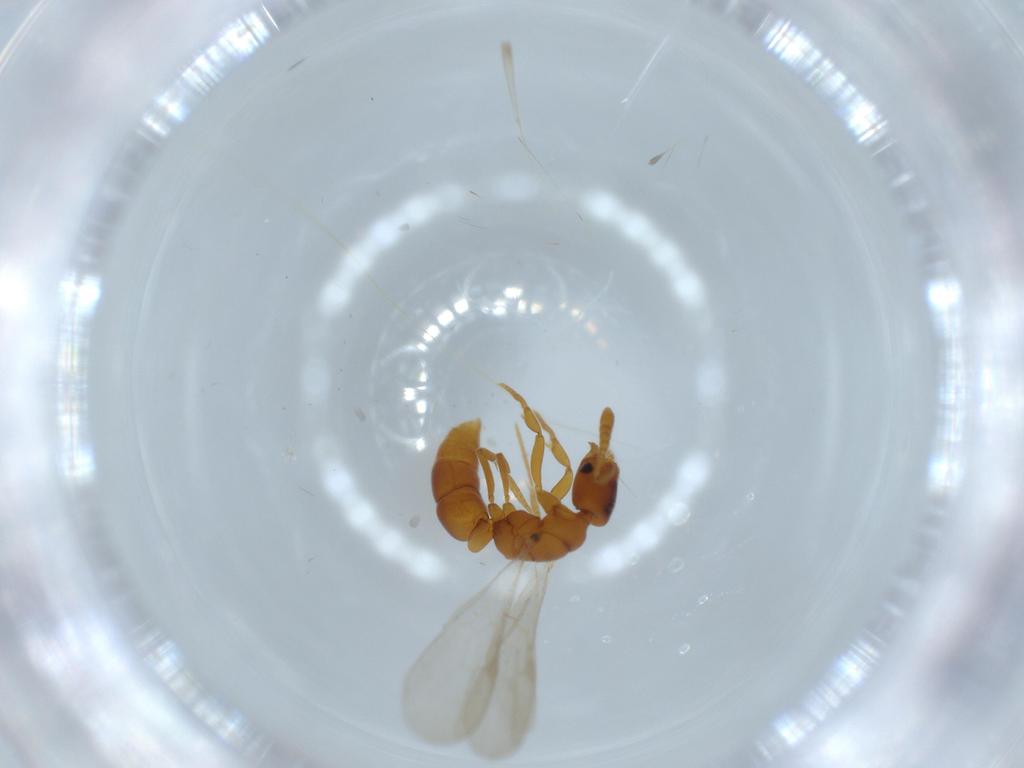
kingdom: Animalia
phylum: Arthropoda
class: Insecta
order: Hymenoptera
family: Formicidae
